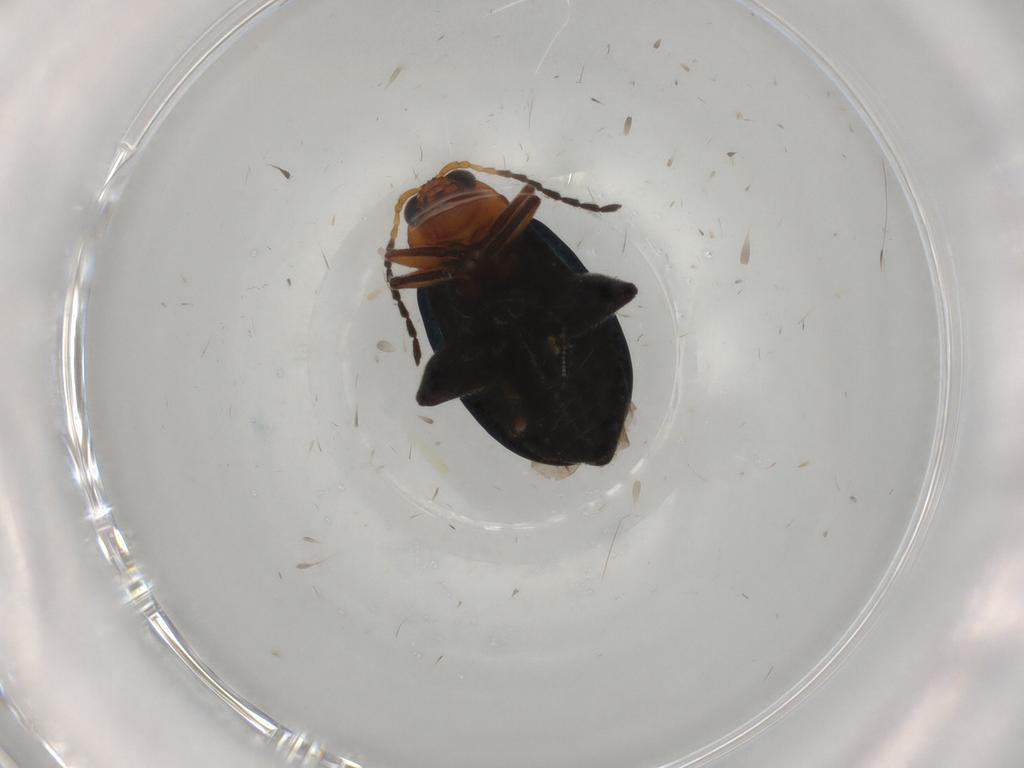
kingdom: Animalia
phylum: Arthropoda
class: Insecta
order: Coleoptera
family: Chrysomelidae
